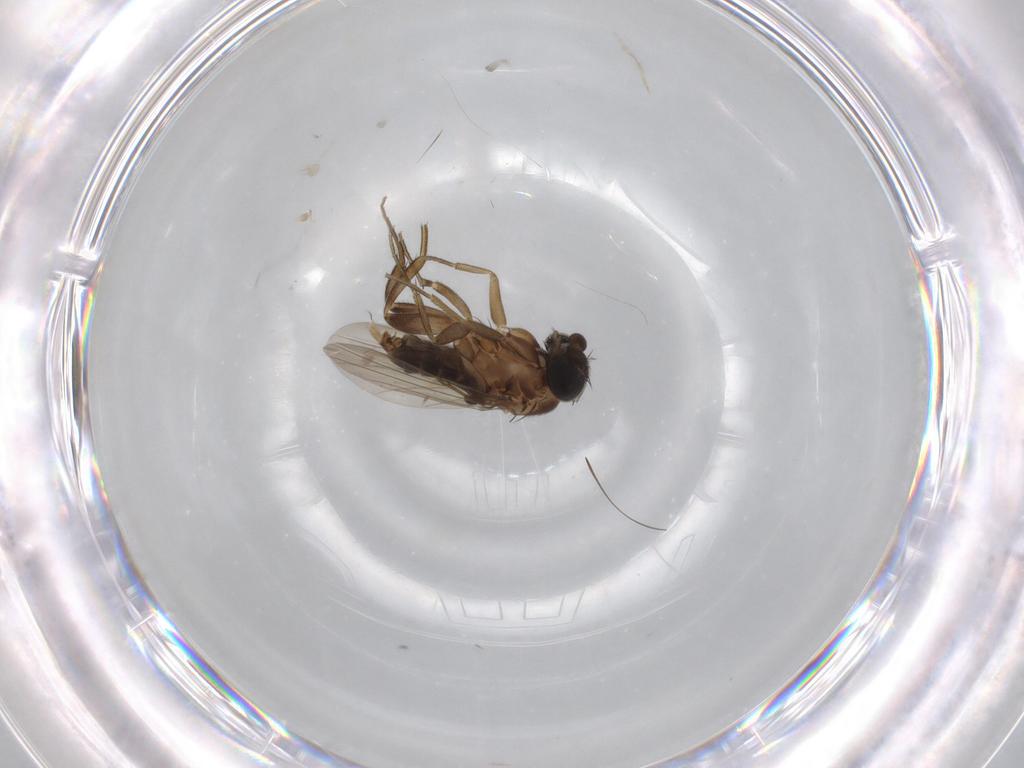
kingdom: Animalia
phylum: Arthropoda
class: Insecta
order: Diptera
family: Phoridae
